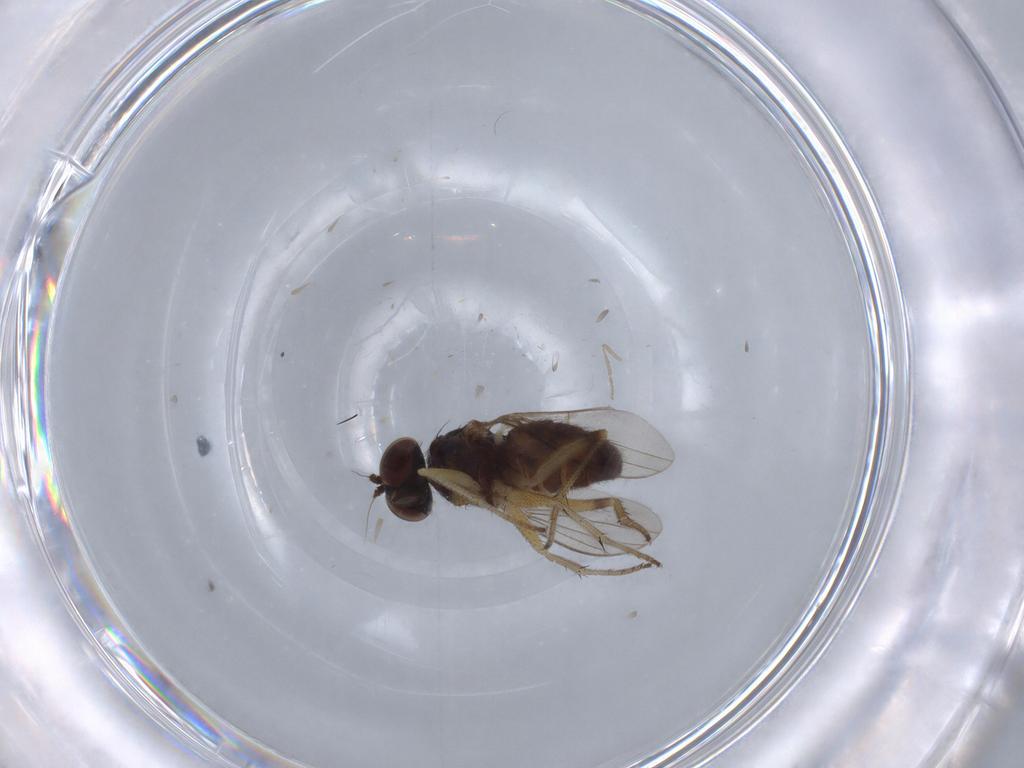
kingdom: Animalia
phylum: Arthropoda
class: Insecta
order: Diptera
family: Psychodidae
